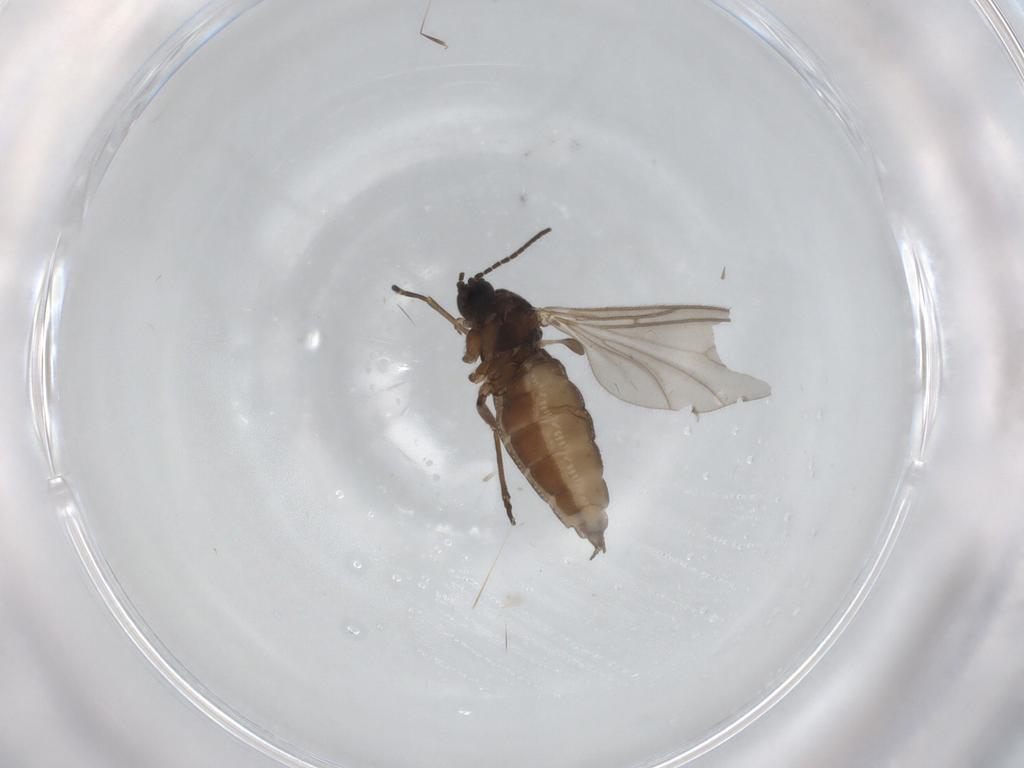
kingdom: Animalia
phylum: Arthropoda
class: Insecta
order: Diptera
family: Sciaridae
